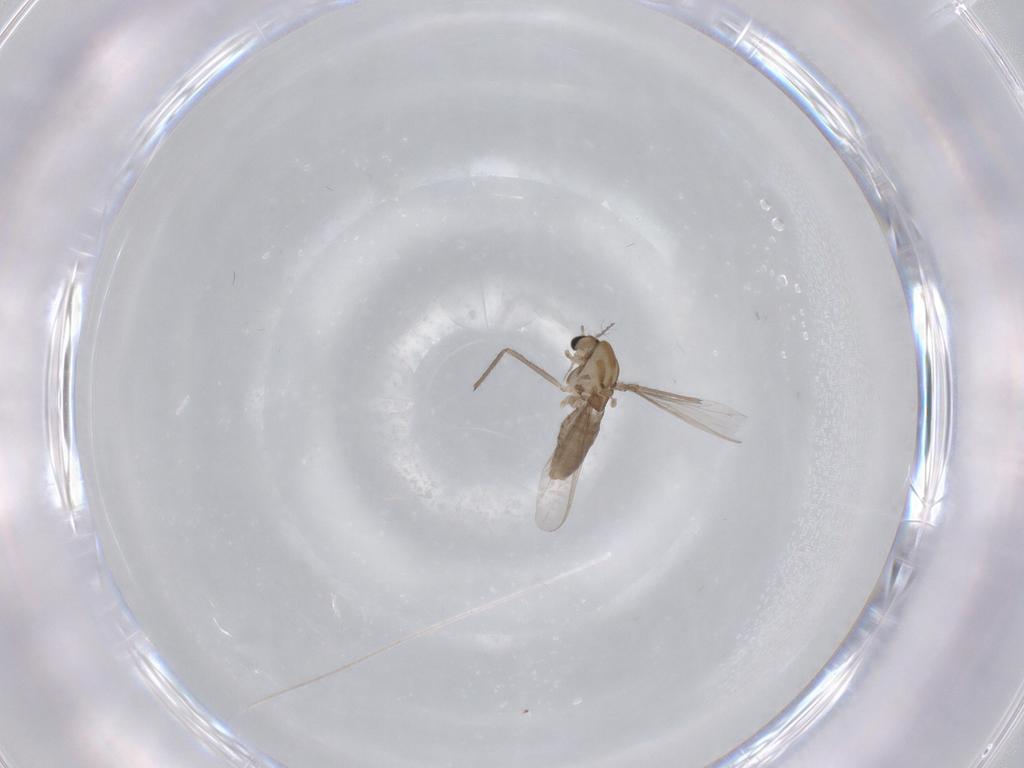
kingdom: Animalia
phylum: Arthropoda
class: Insecta
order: Diptera
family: Chironomidae
